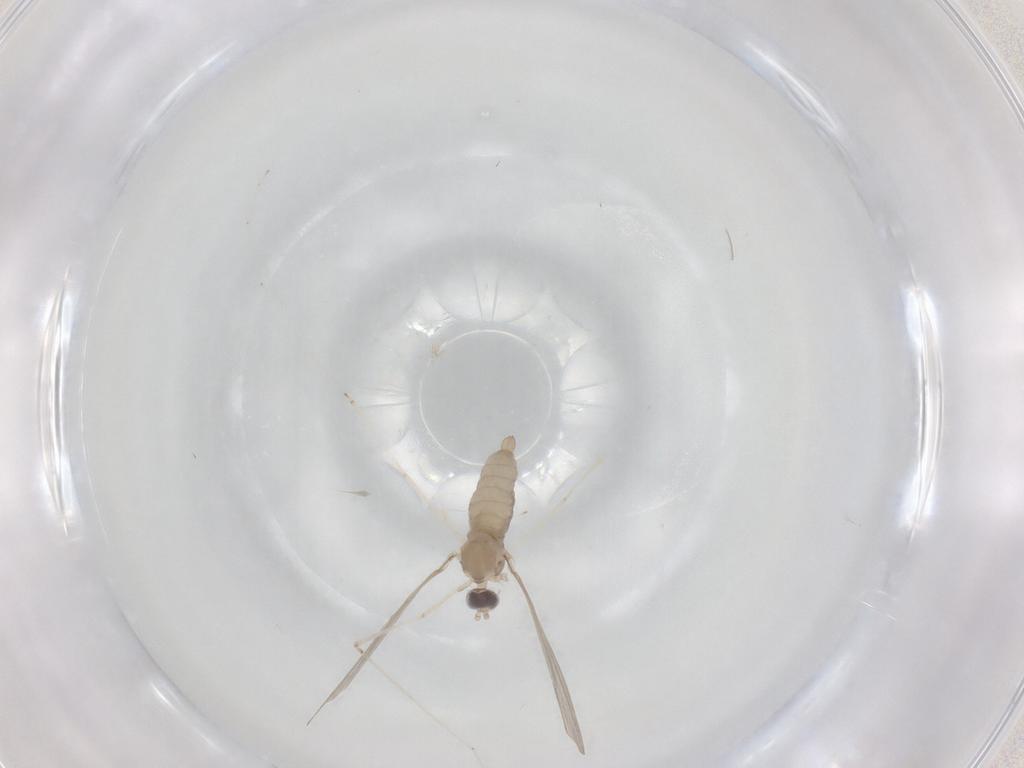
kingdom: Animalia
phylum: Arthropoda
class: Insecta
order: Diptera
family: Cecidomyiidae
